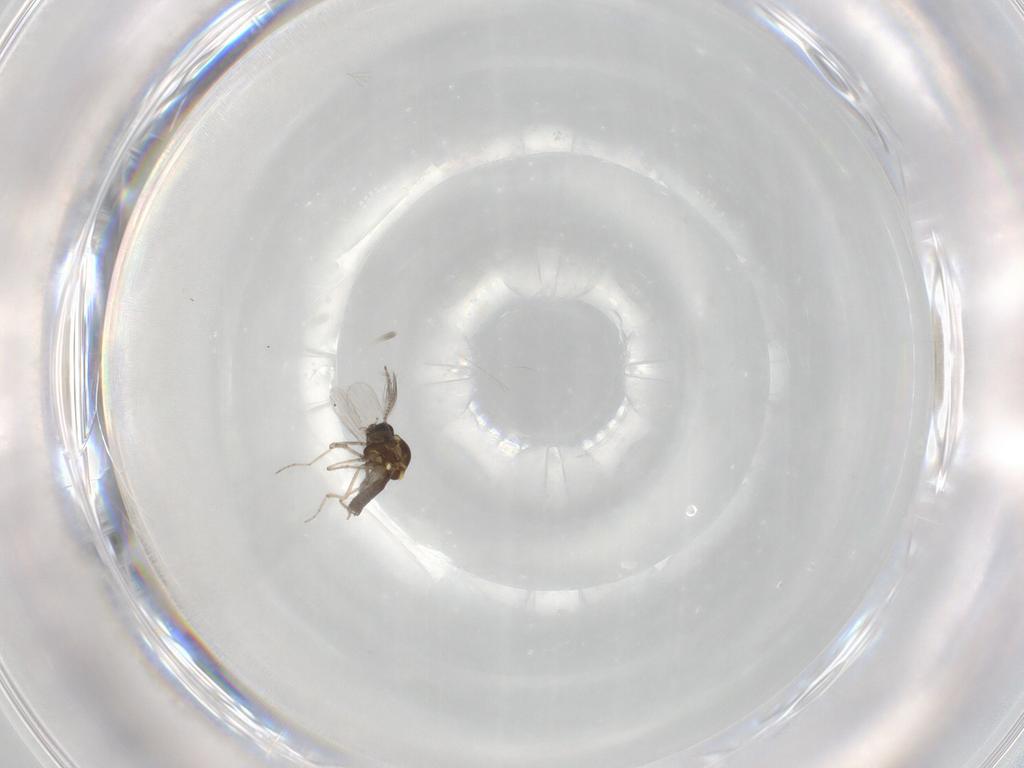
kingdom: Animalia
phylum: Arthropoda
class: Insecta
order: Diptera
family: Ceratopogonidae
